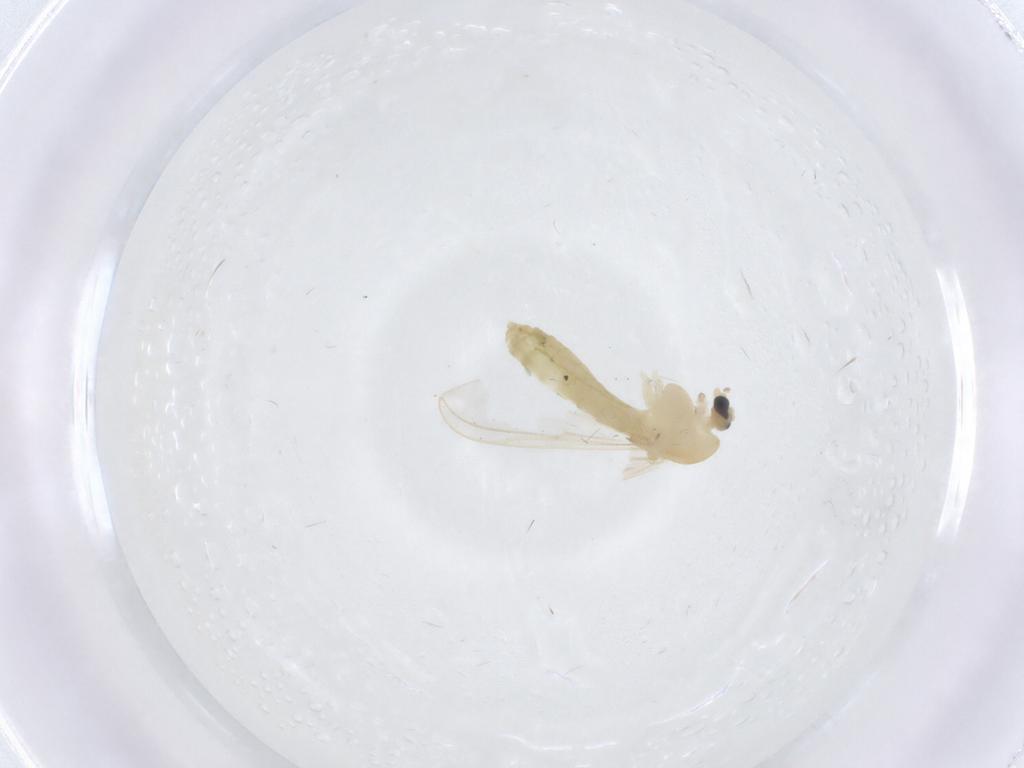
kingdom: Animalia
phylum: Arthropoda
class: Insecta
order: Diptera
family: Chironomidae
